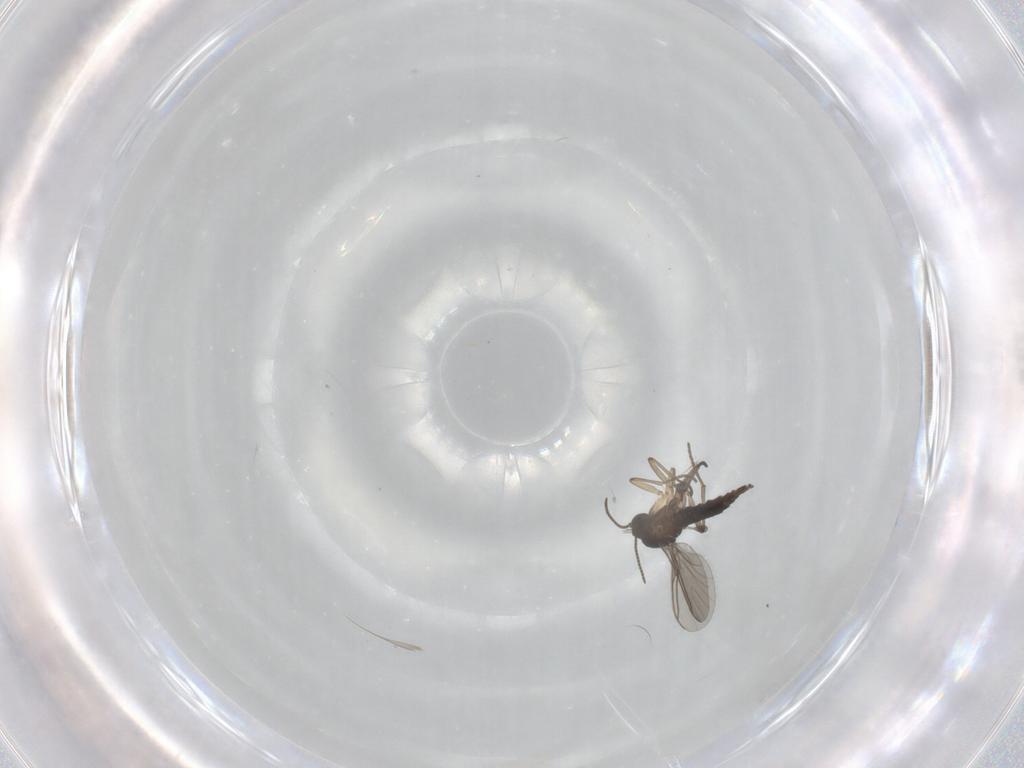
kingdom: Animalia
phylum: Arthropoda
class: Insecta
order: Diptera
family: Sciaridae
